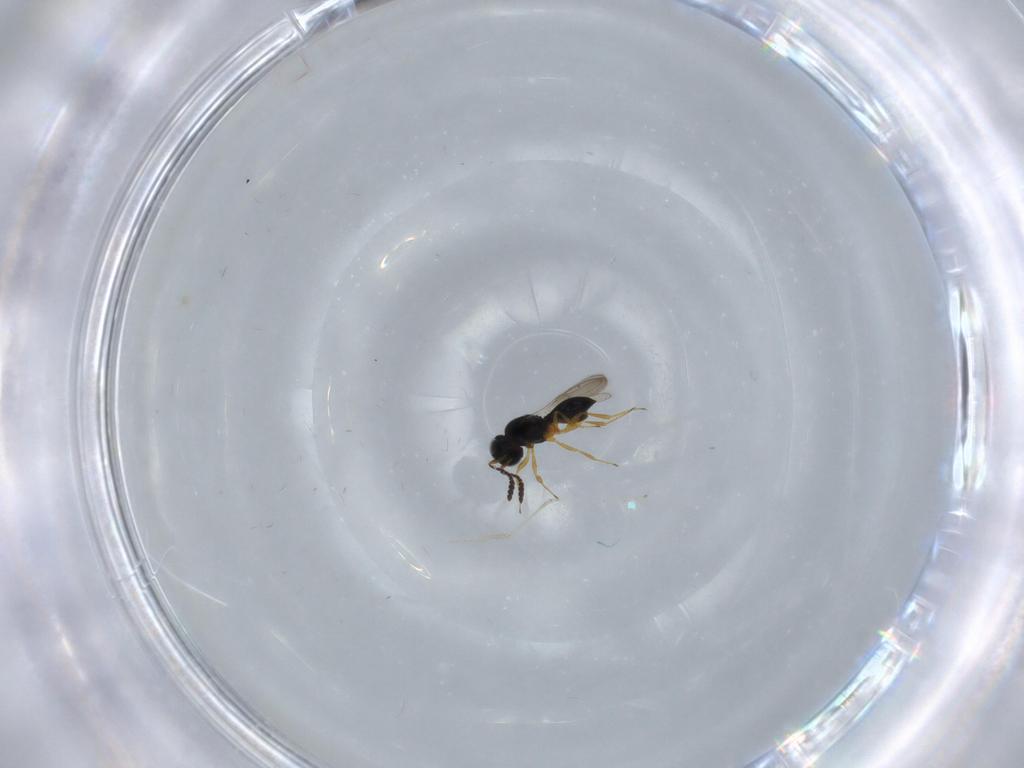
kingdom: Animalia
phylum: Arthropoda
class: Insecta
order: Hymenoptera
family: Scelionidae
